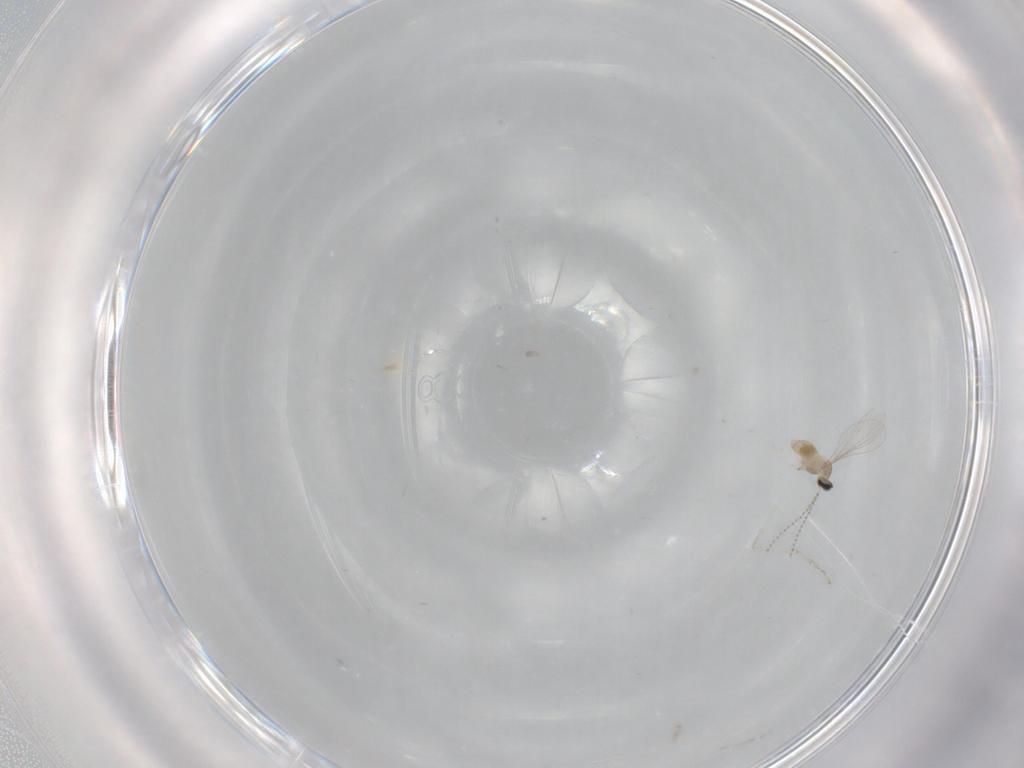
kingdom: Animalia
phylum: Arthropoda
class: Insecta
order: Diptera
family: Cecidomyiidae
